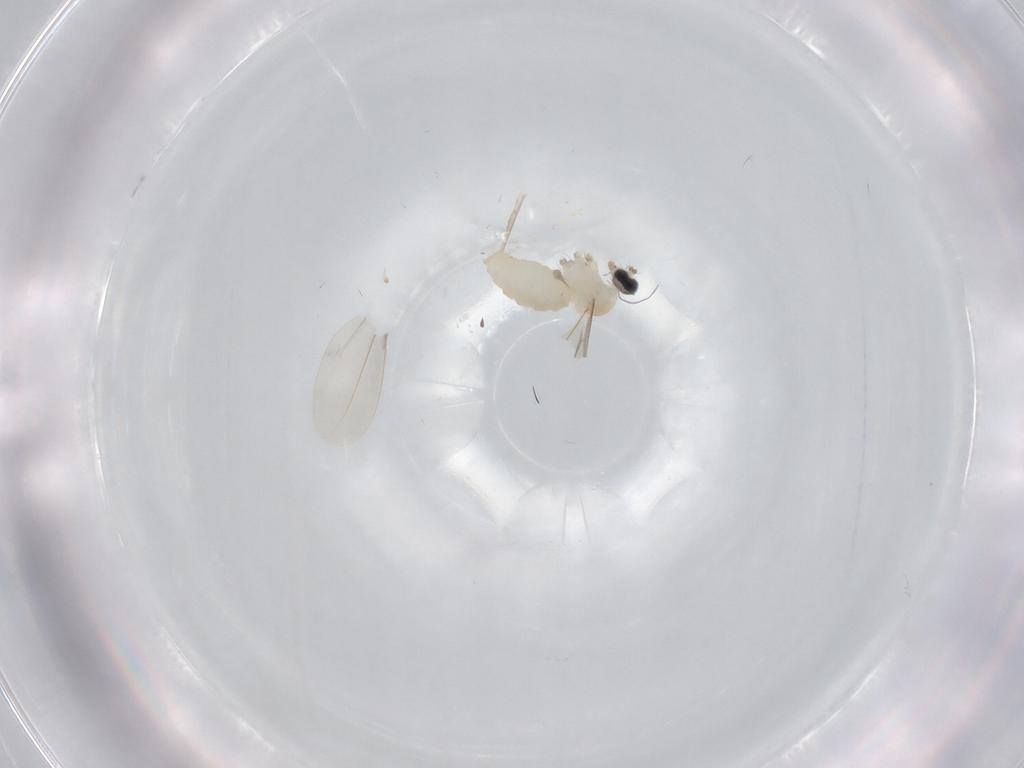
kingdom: Animalia
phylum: Arthropoda
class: Insecta
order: Diptera
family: Cecidomyiidae
